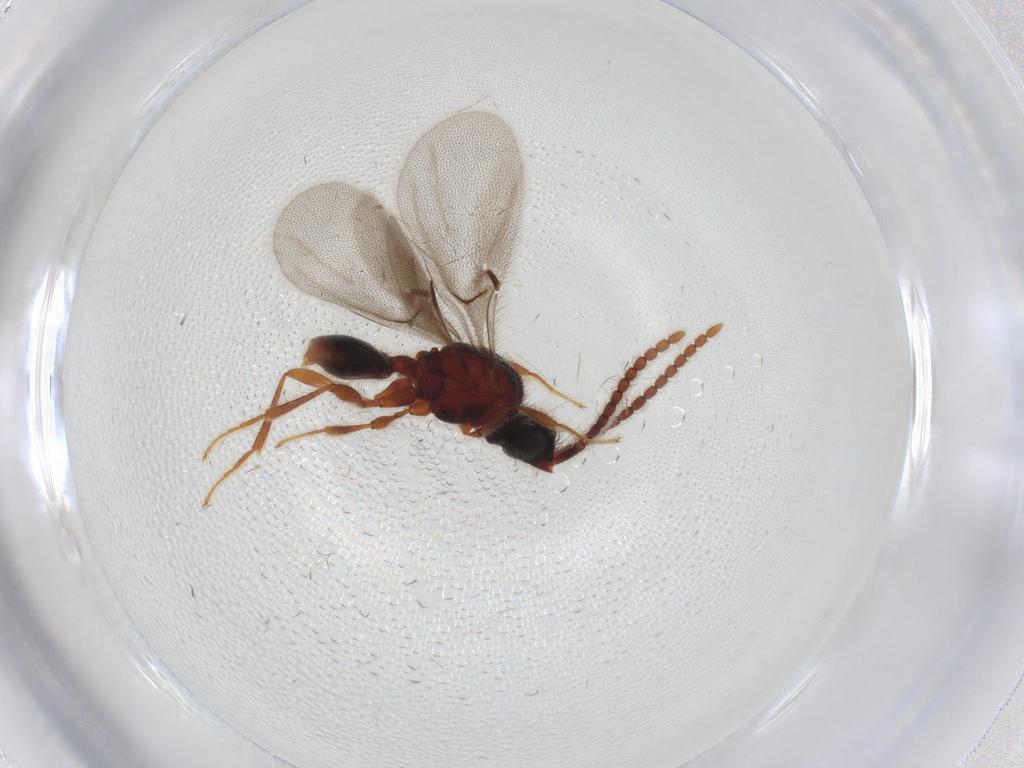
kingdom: Animalia
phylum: Arthropoda
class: Insecta
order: Hymenoptera
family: Diapriidae
